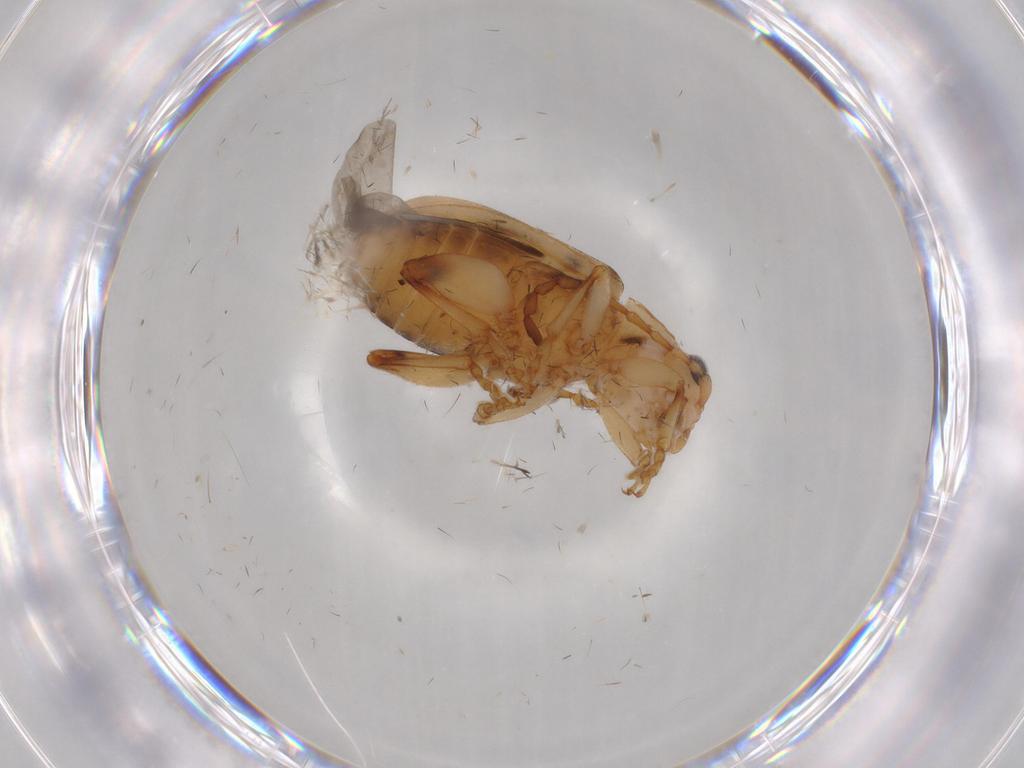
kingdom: Animalia
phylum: Arthropoda
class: Insecta
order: Coleoptera
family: Chrysomelidae
